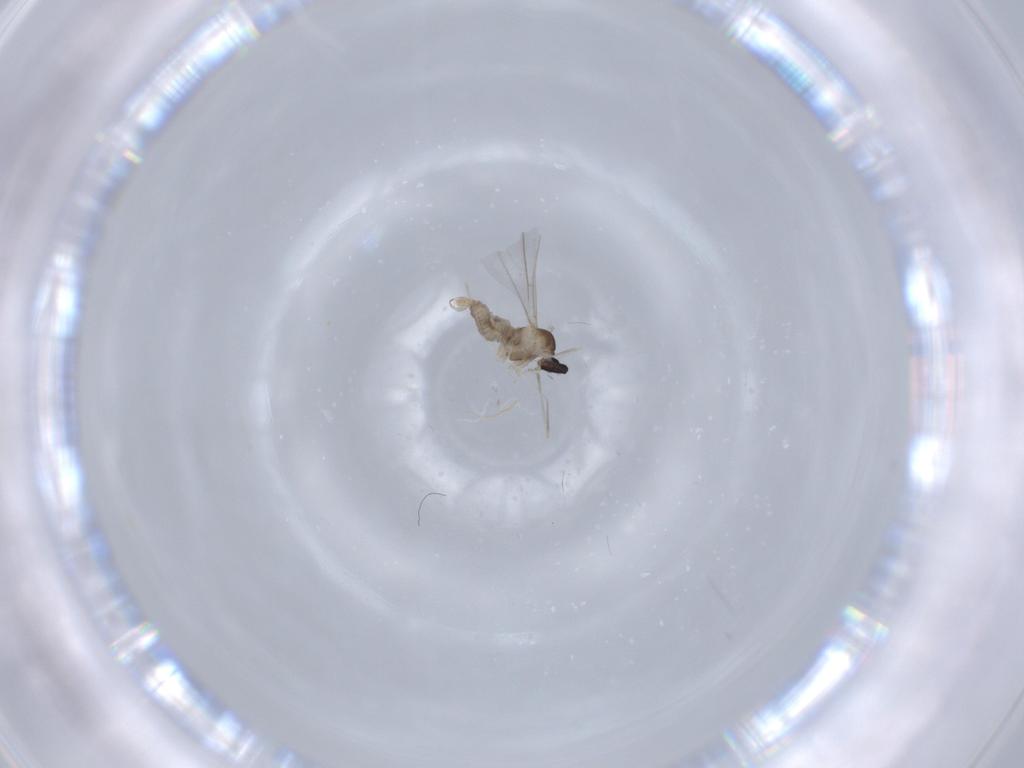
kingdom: Animalia
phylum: Arthropoda
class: Insecta
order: Diptera
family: Cecidomyiidae
